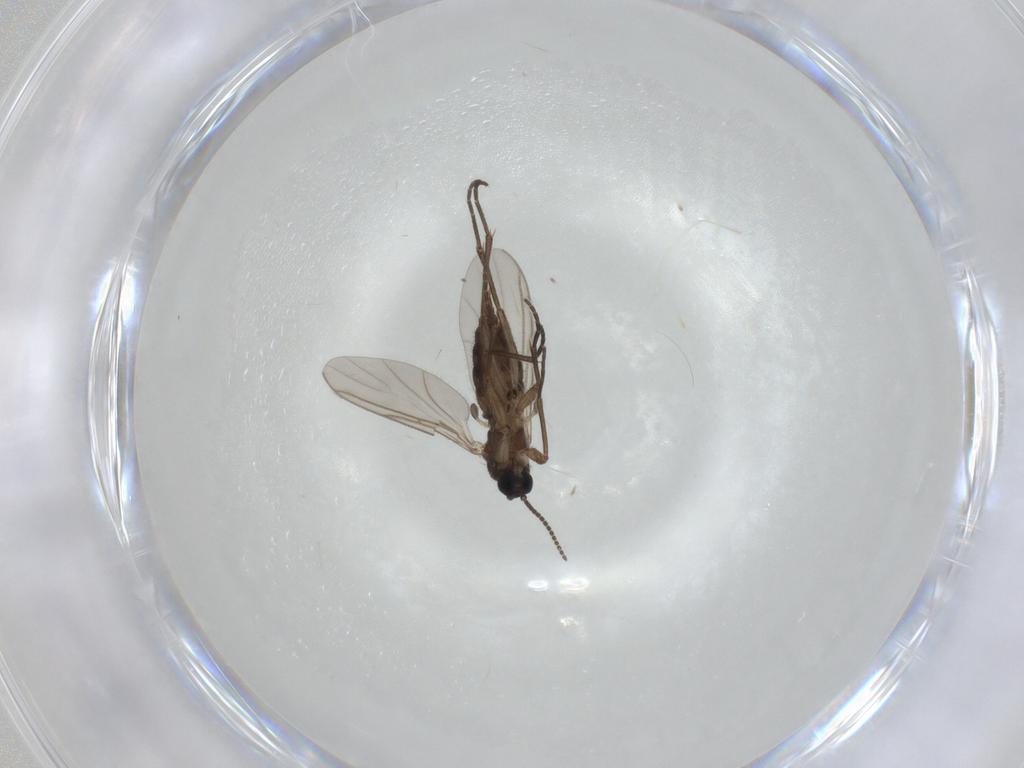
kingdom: Animalia
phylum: Arthropoda
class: Insecta
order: Diptera
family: Sciaridae
